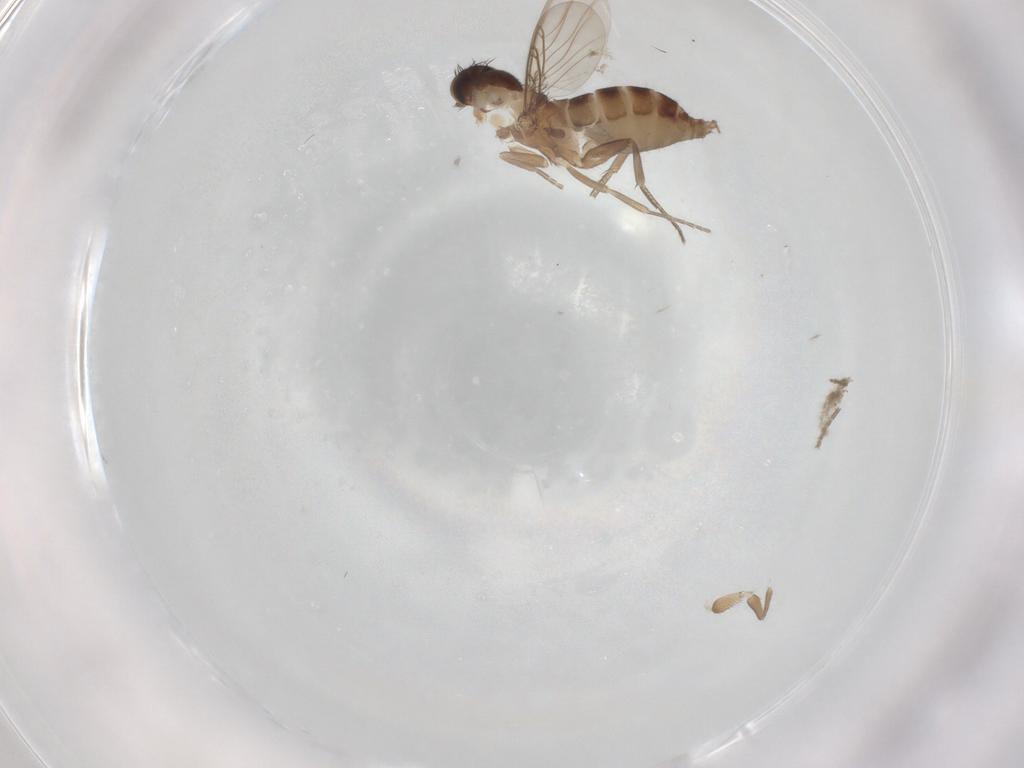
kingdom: Animalia
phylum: Arthropoda
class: Insecta
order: Diptera
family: Phoridae
